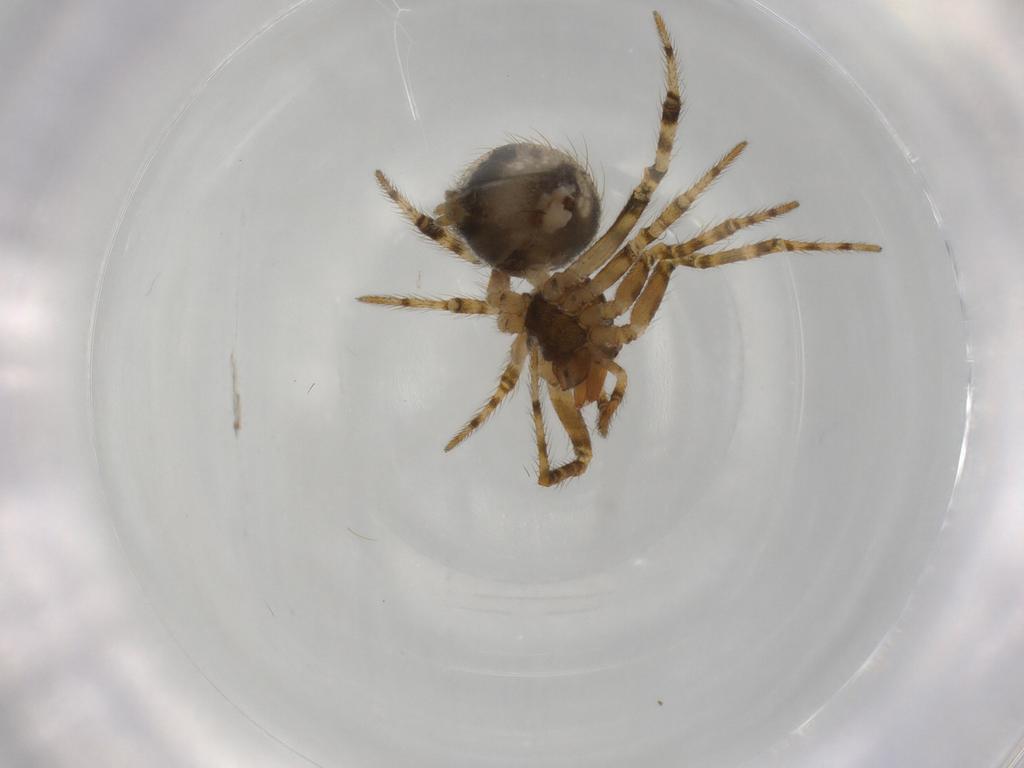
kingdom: Animalia
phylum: Arthropoda
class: Arachnida
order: Araneae
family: Theridiidae
